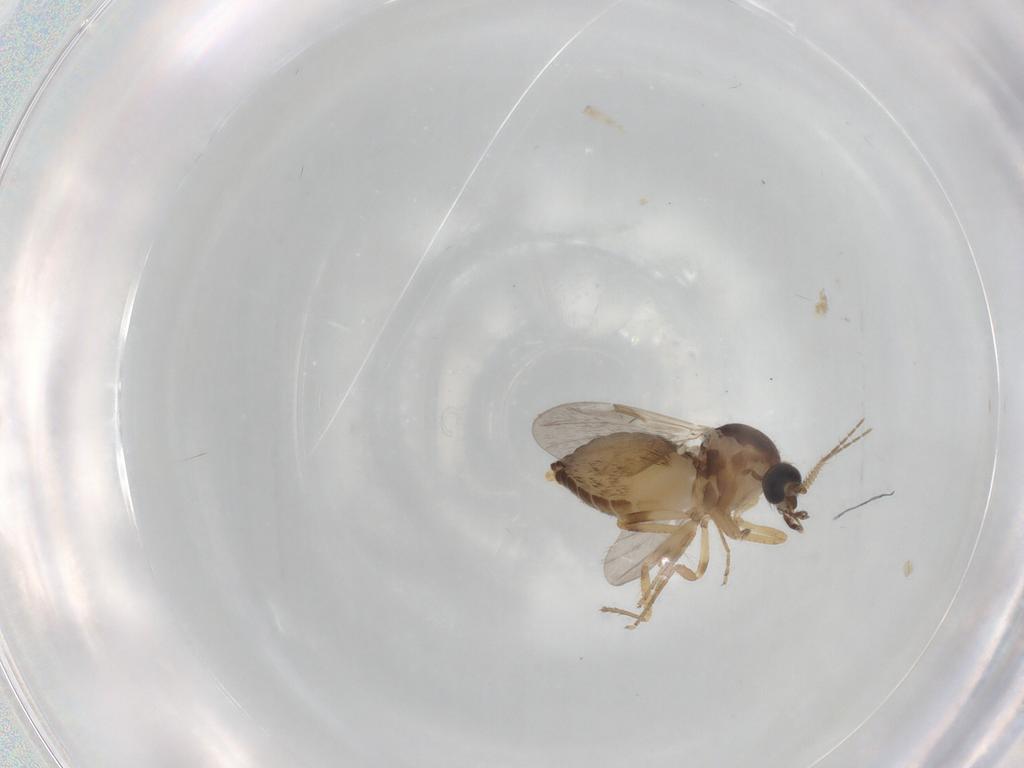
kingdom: Animalia
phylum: Arthropoda
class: Insecta
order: Diptera
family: Ceratopogonidae
